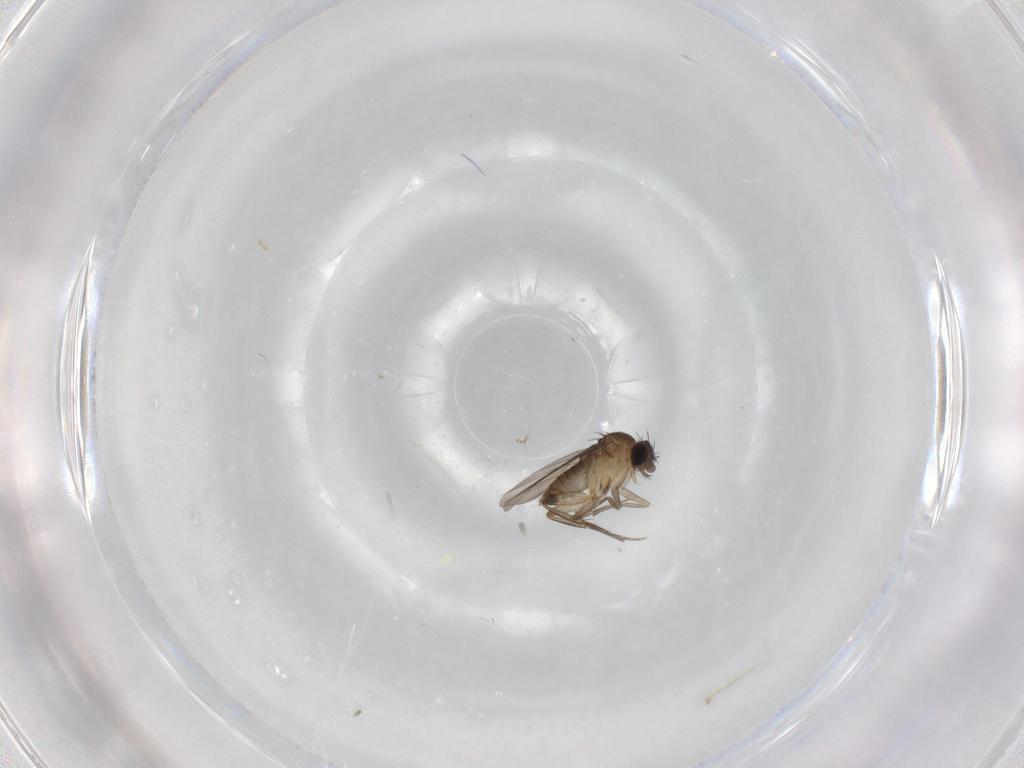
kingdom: Animalia
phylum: Arthropoda
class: Insecta
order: Diptera
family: Phoridae
